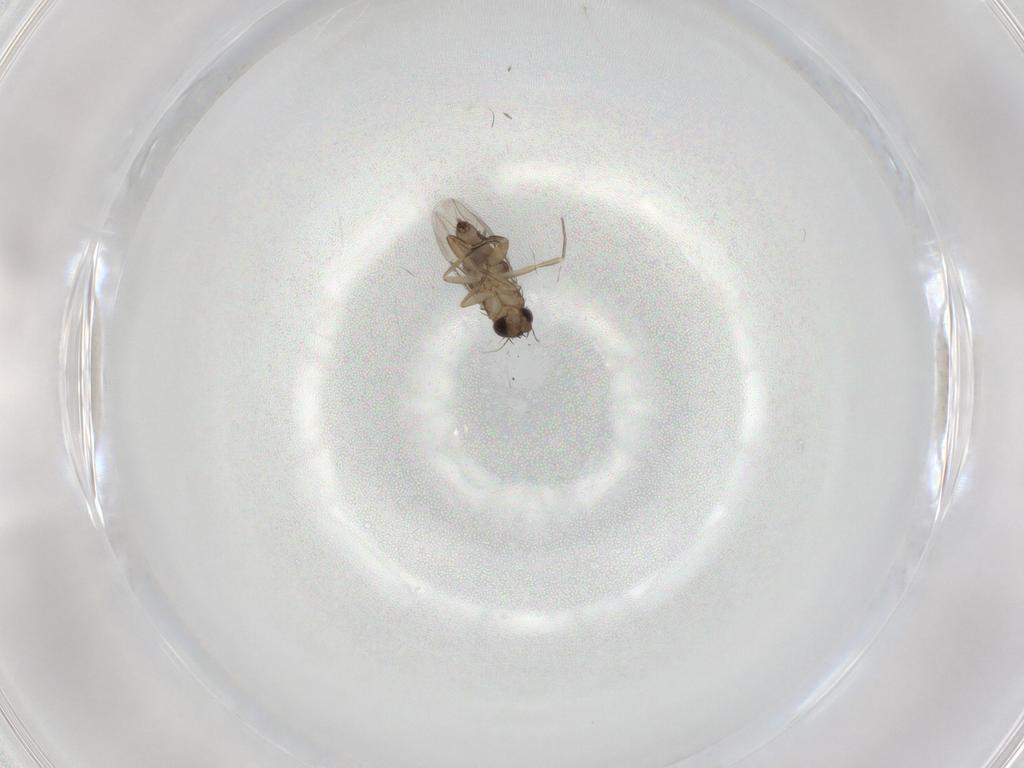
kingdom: Animalia
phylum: Arthropoda
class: Insecta
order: Diptera
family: Phoridae
